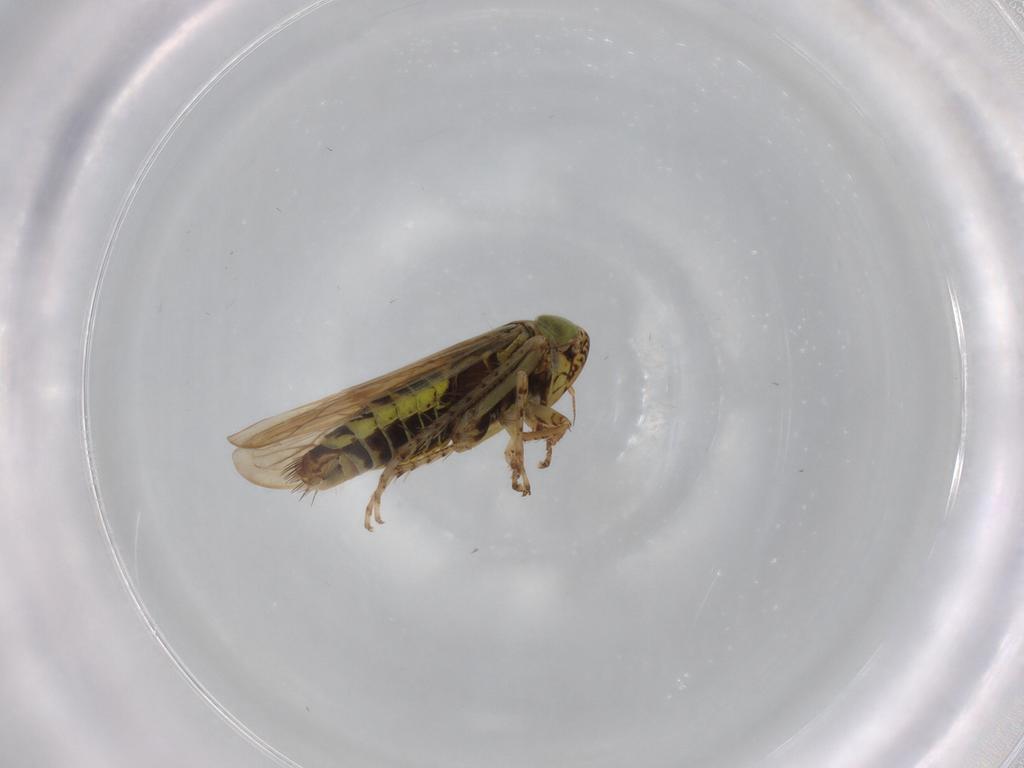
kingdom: Animalia
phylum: Arthropoda
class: Insecta
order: Hemiptera
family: Cicadellidae
